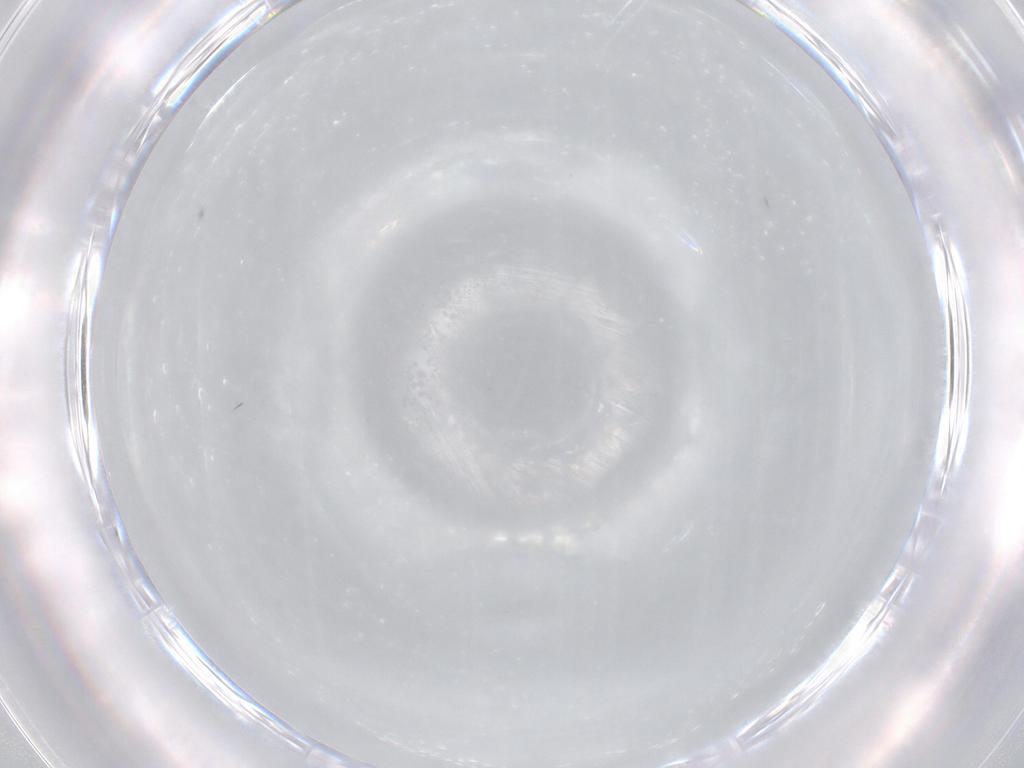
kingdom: Animalia
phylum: Arthropoda
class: Insecta
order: Diptera
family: Cecidomyiidae
